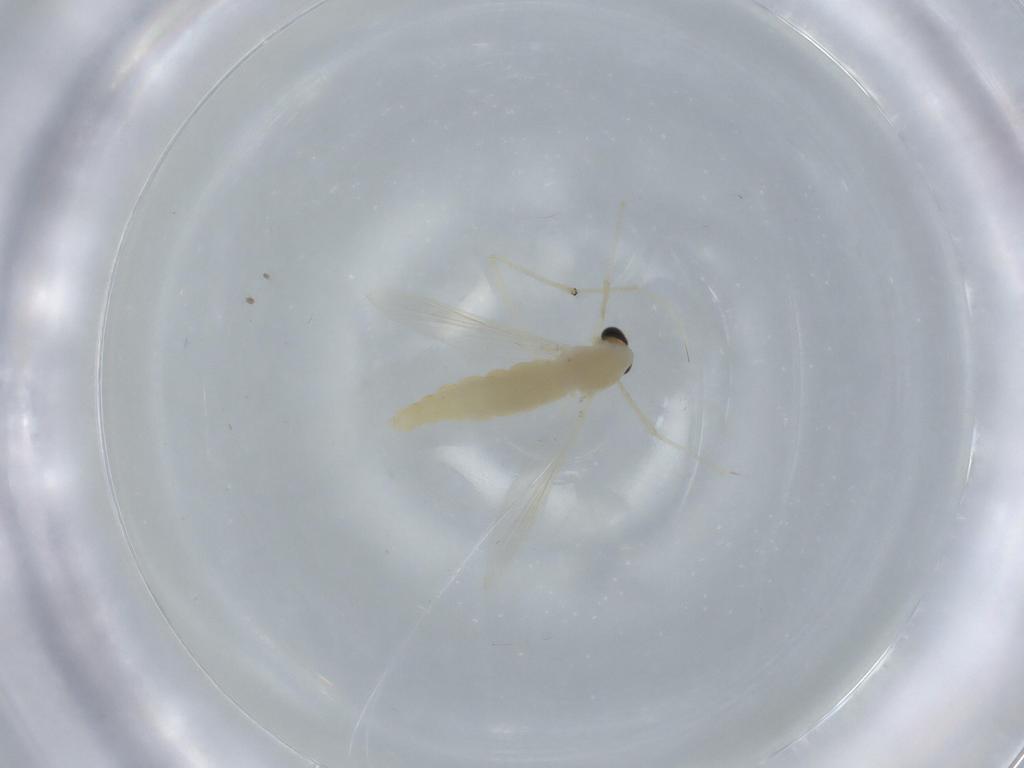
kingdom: Animalia
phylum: Arthropoda
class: Insecta
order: Diptera
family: Chironomidae
